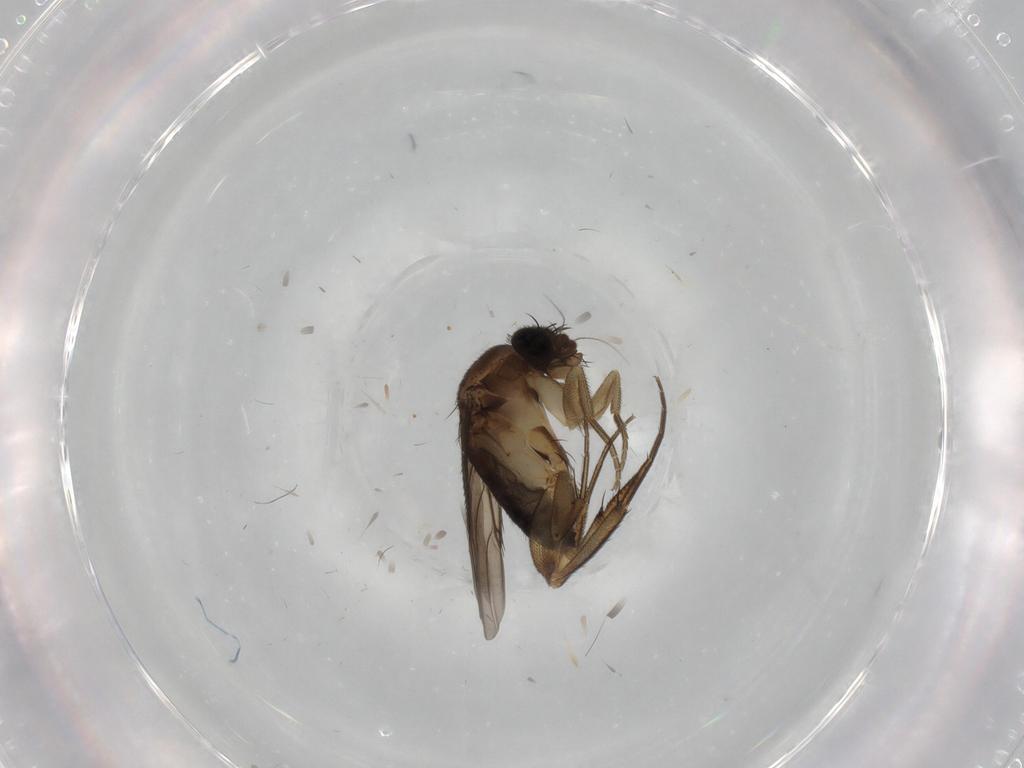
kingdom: Animalia
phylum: Arthropoda
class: Insecta
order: Diptera
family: Phoridae
